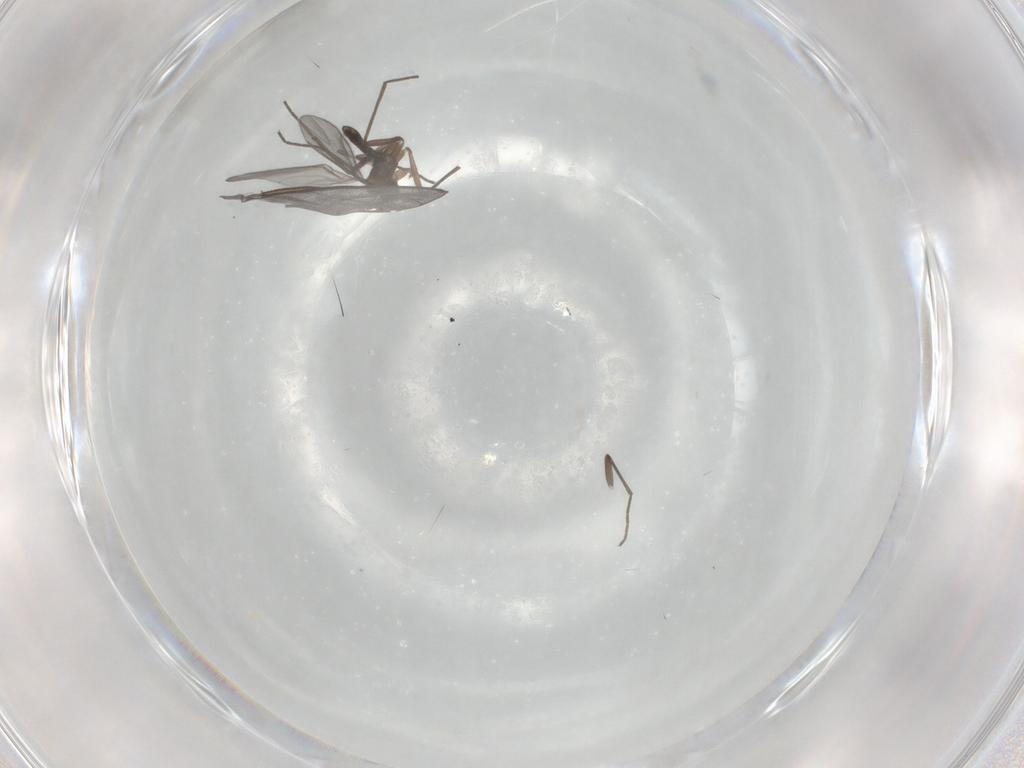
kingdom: Animalia
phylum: Arthropoda
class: Insecta
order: Diptera
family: Sciaridae
